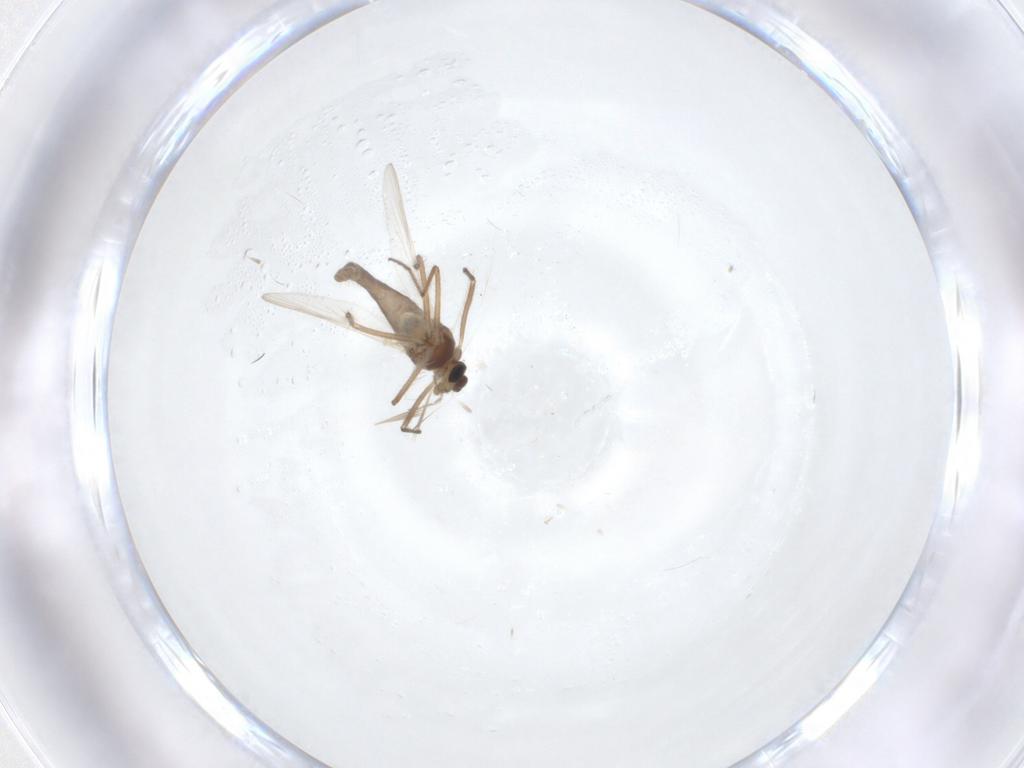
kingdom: Animalia
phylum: Arthropoda
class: Insecta
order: Diptera
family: Chironomidae
